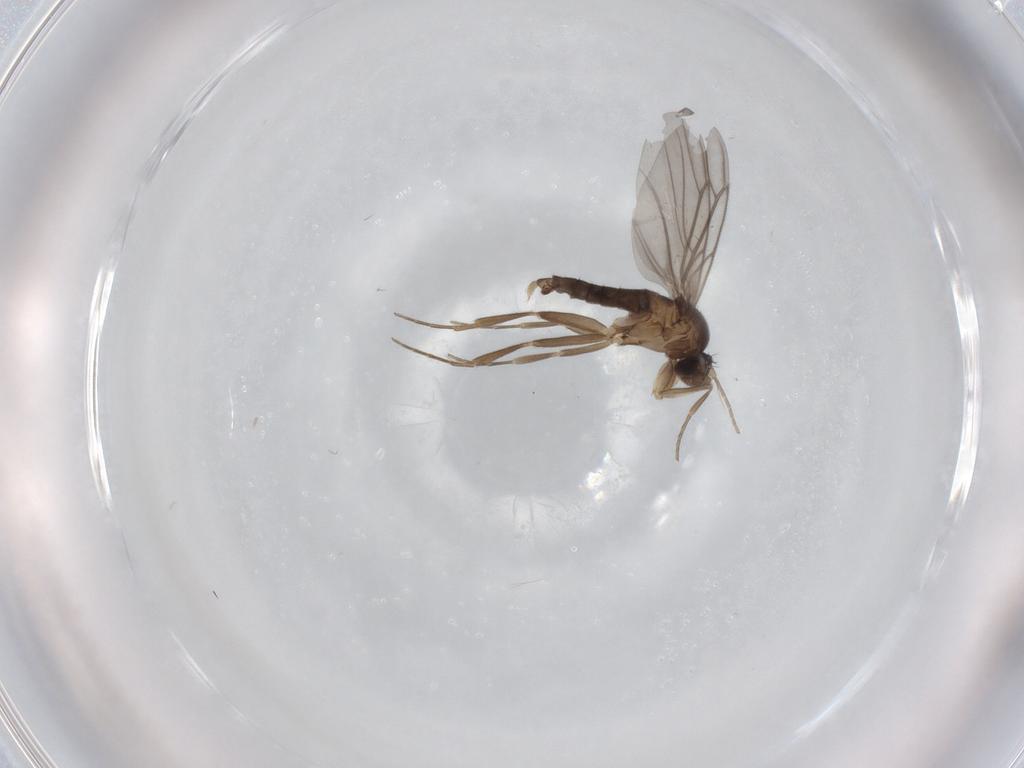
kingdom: Animalia
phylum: Arthropoda
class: Insecta
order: Diptera
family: Phoridae
